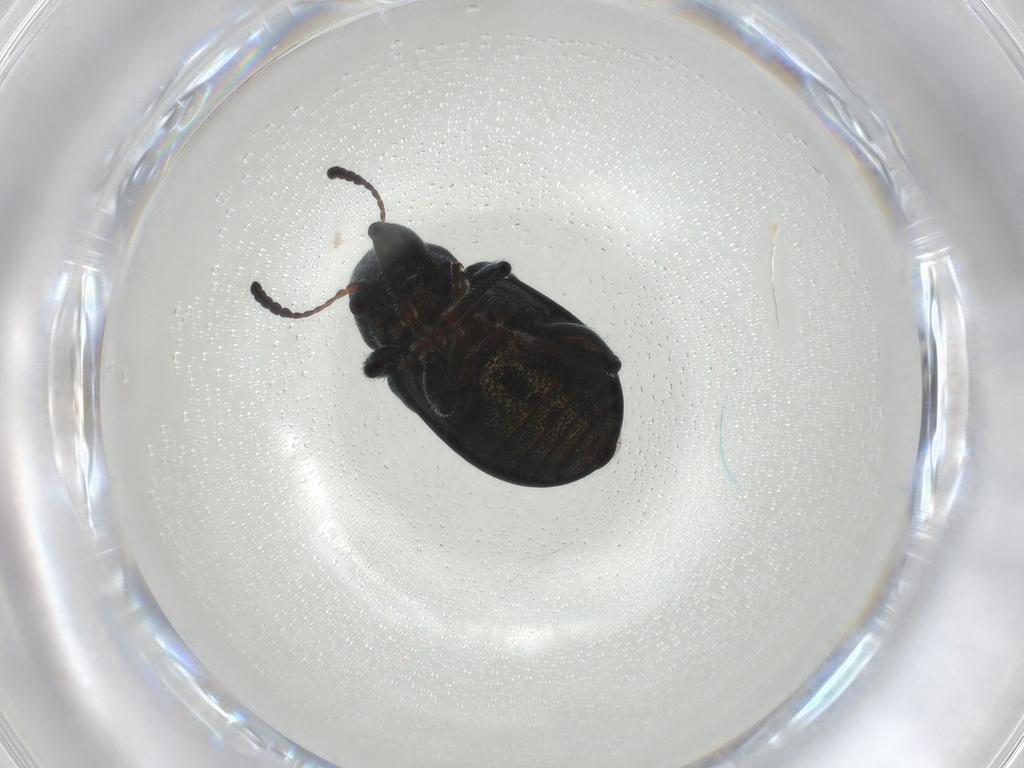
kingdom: Animalia
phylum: Arthropoda
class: Insecta
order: Coleoptera
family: Chrysomelidae
